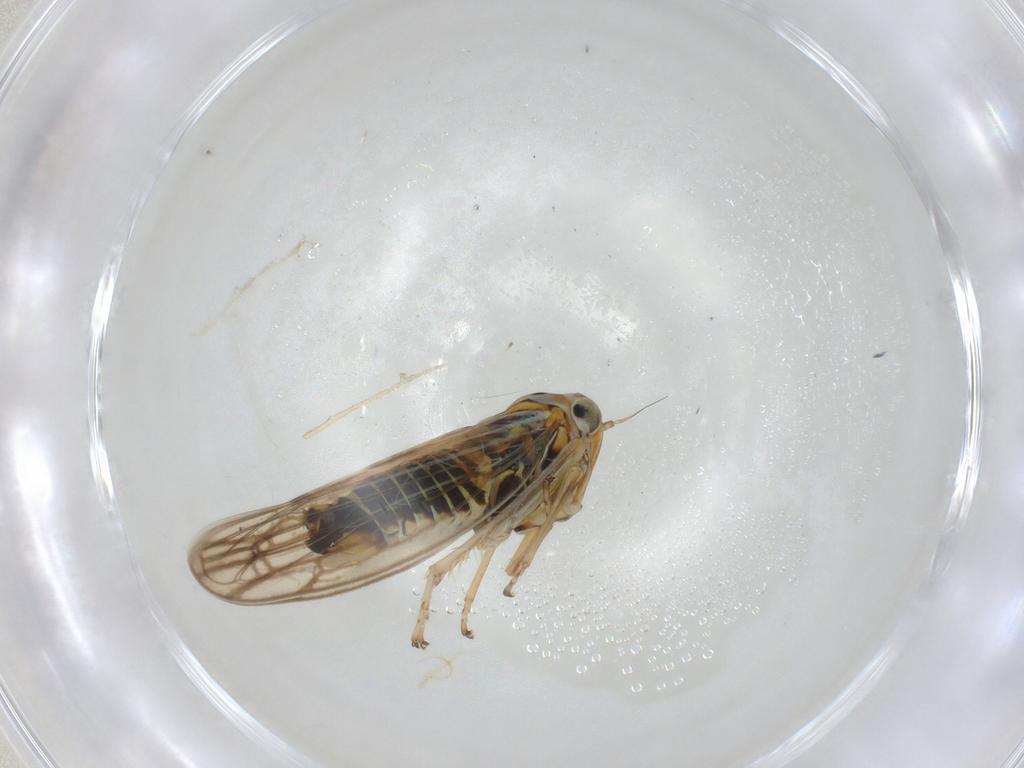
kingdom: Animalia
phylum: Arthropoda
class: Insecta
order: Hemiptera
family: Cicadellidae
